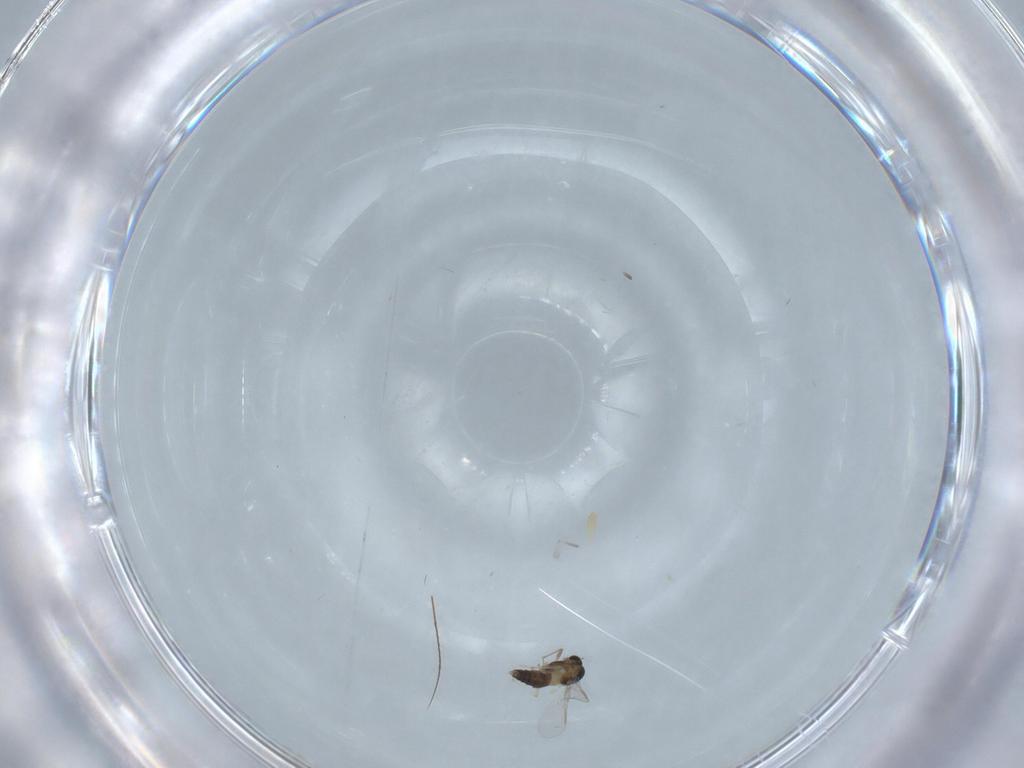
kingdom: Animalia
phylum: Arthropoda
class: Insecta
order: Diptera
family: Chironomidae
